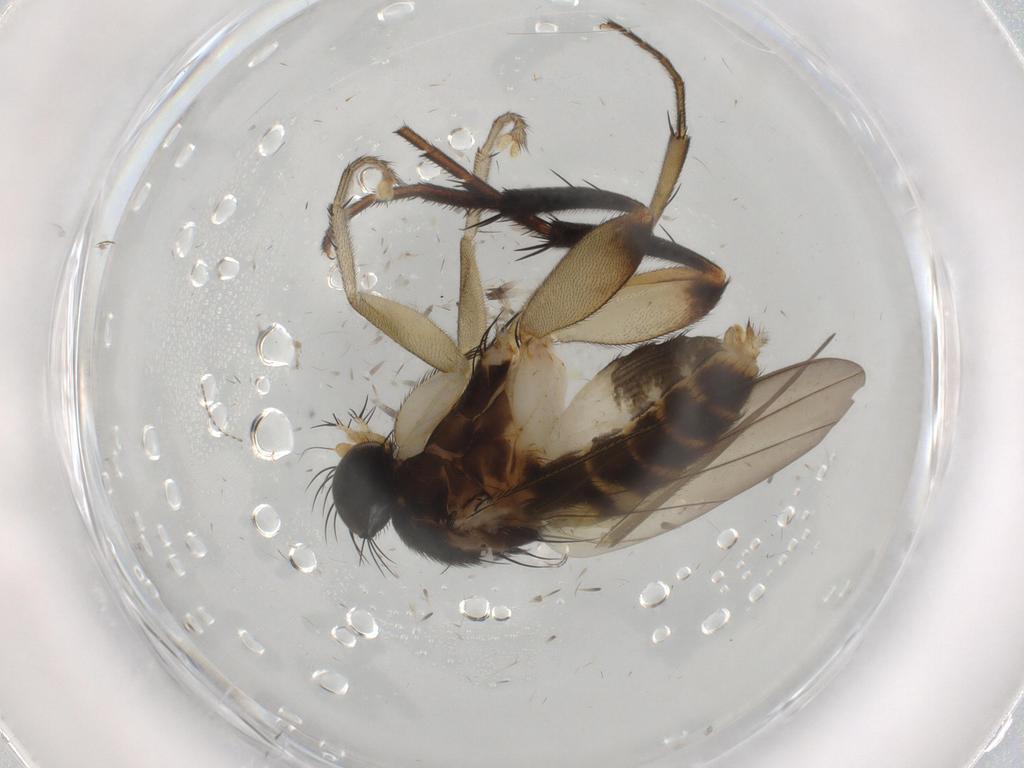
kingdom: Animalia
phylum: Arthropoda
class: Insecta
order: Diptera
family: Phoridae
